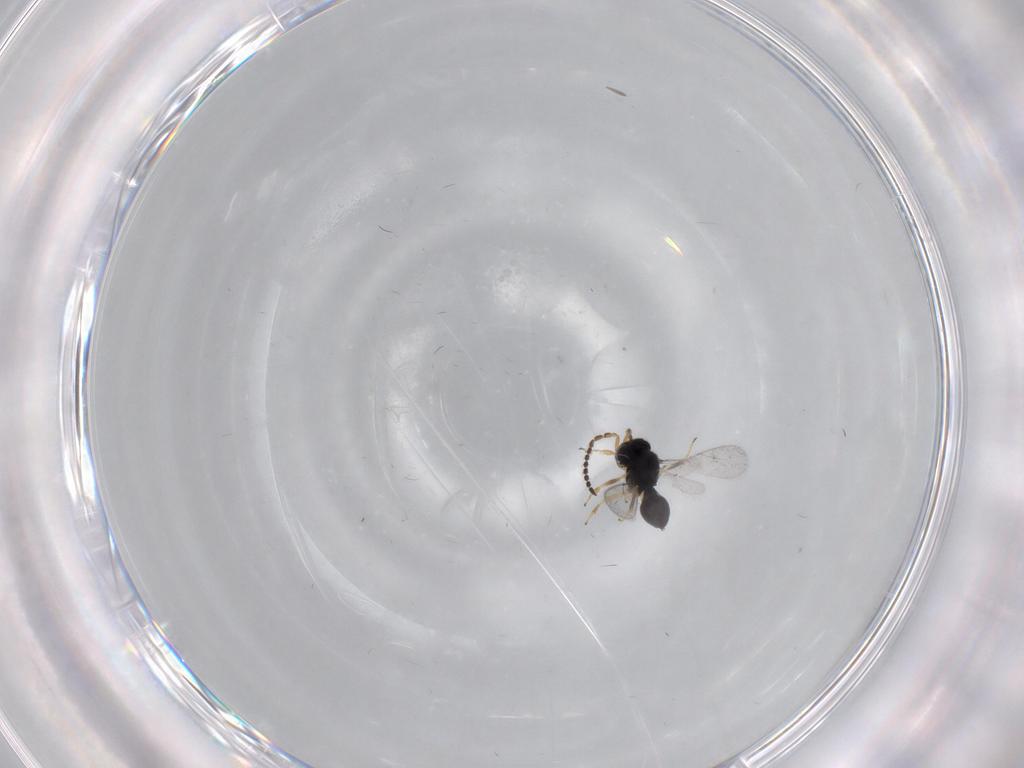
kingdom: Animalia
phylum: Arthropoda
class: Insecta
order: Hymenoptera
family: Scelionidae
